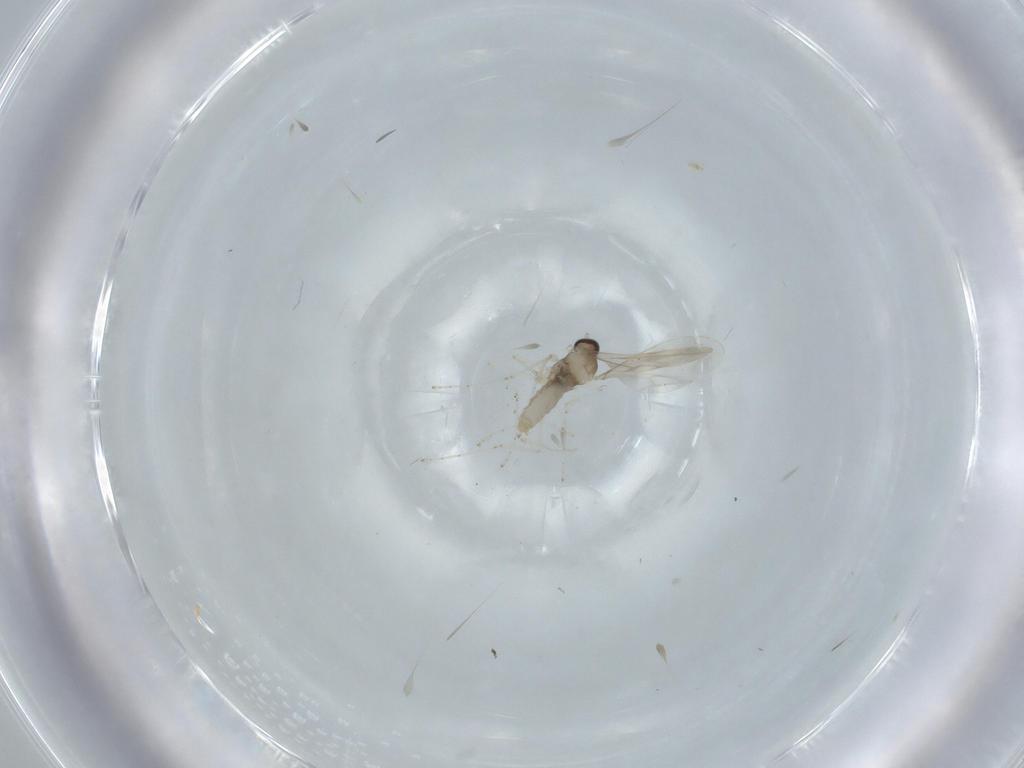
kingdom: Animalia
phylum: Arthropoda
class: Insecta
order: Diptera
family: Cecidomyiidae
